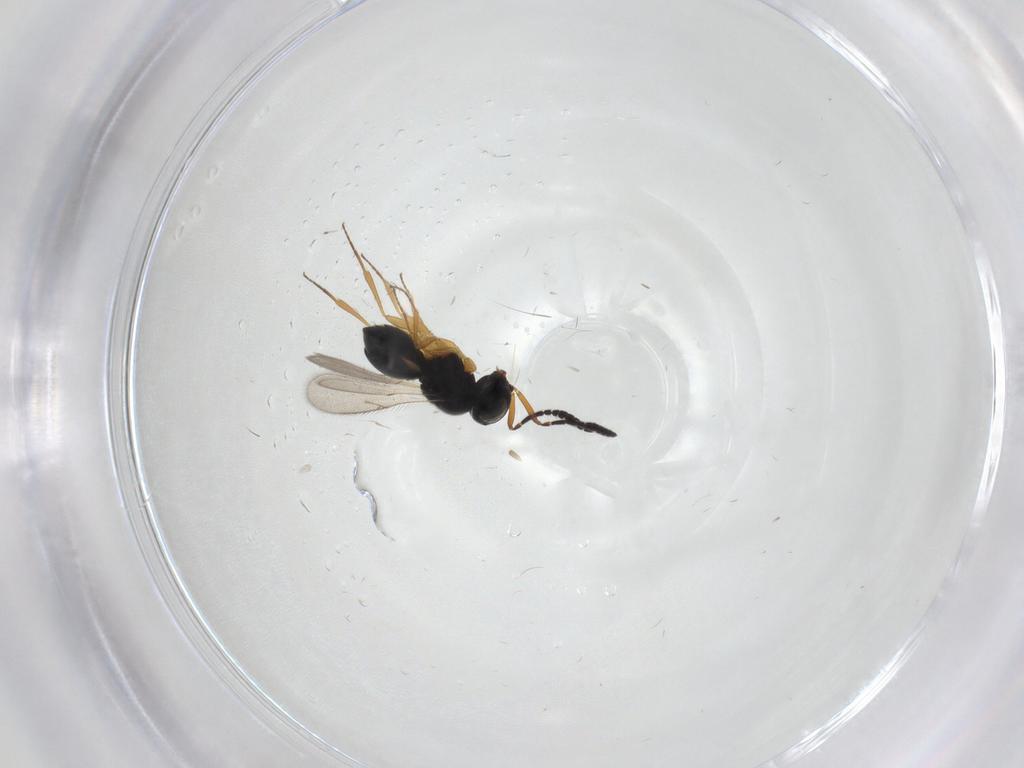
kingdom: Animalia
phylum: Arthropoda
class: Insecta
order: Hymenoptera
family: Scelionidae
